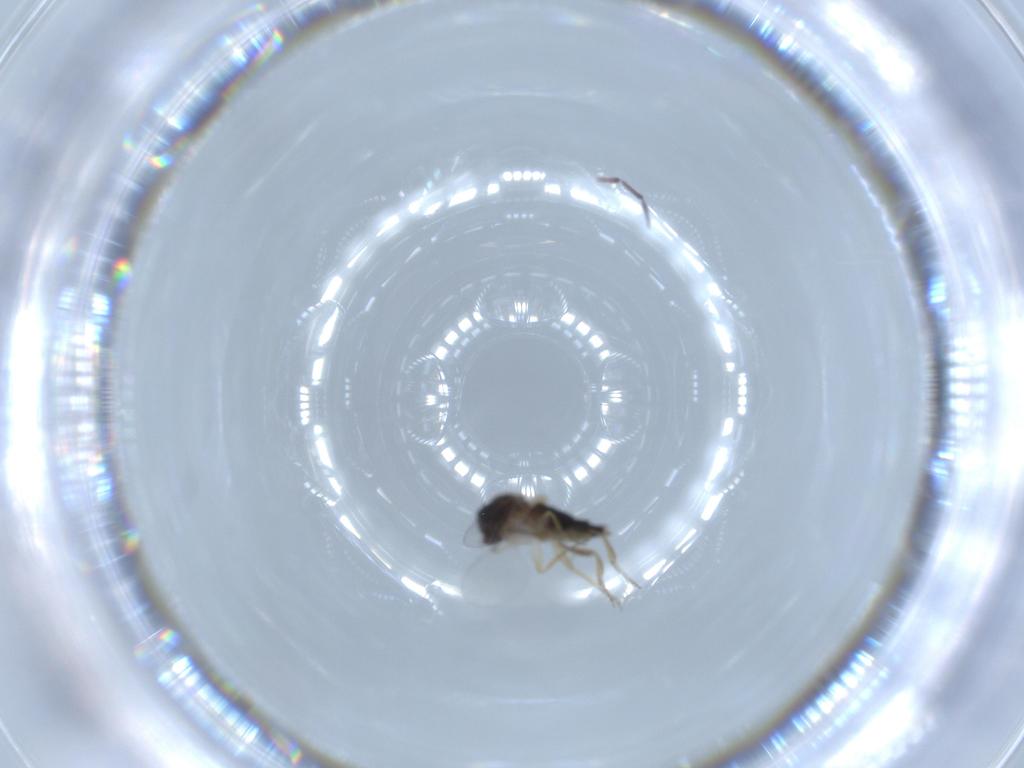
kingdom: Animalia
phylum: Arthropoda
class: Insecta
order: Diptera
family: Phoridae
